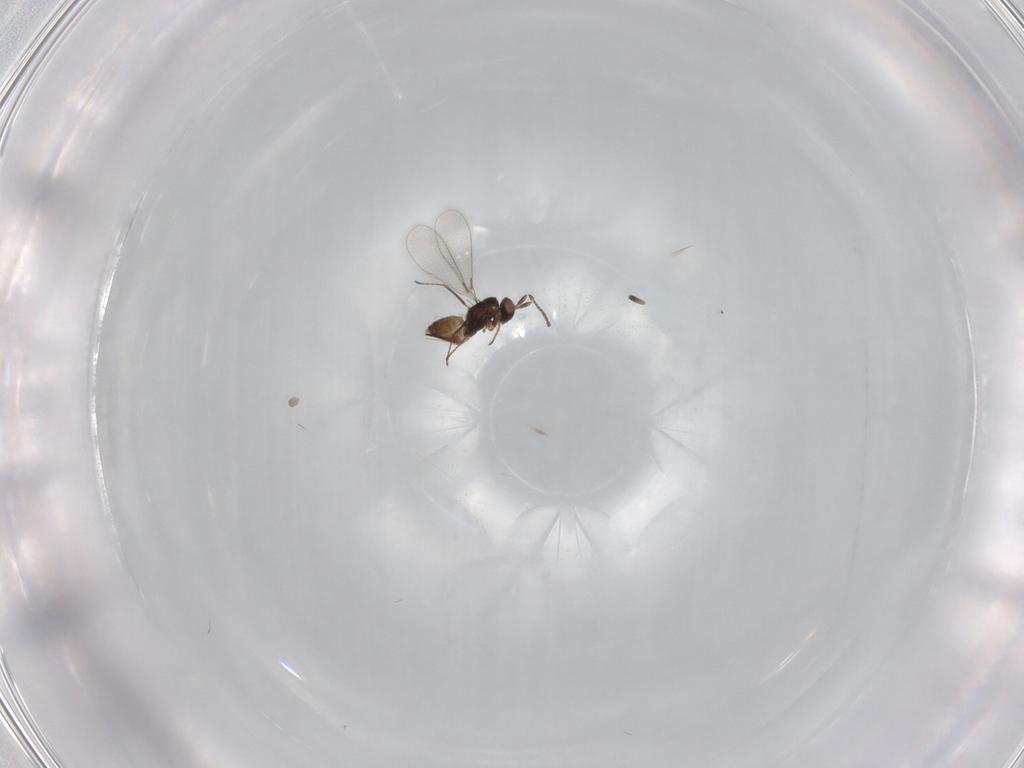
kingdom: Animalia
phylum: Arthropoda
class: Insecta
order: Hymenoptera
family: Mymaridae
